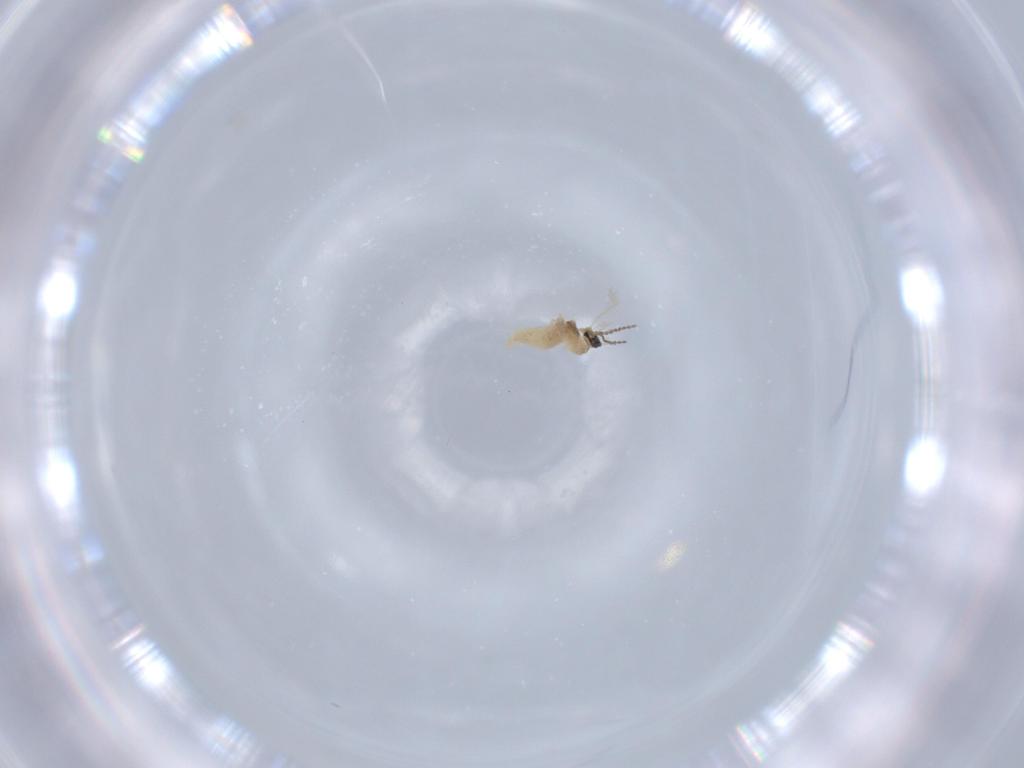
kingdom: Animalia
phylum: Arthropoda
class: Insecta
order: Diptera
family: Cecidomyiidae
